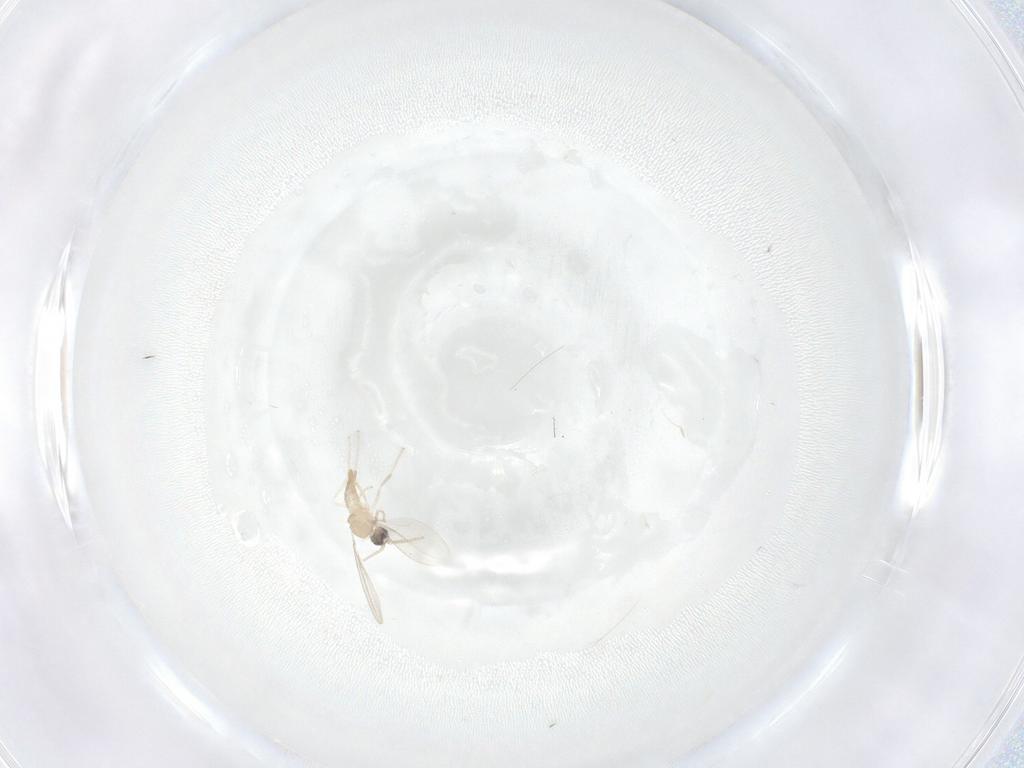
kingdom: Animalia
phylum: Arthropoda
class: Insecta
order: Diptera
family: Cecidomyiidae
